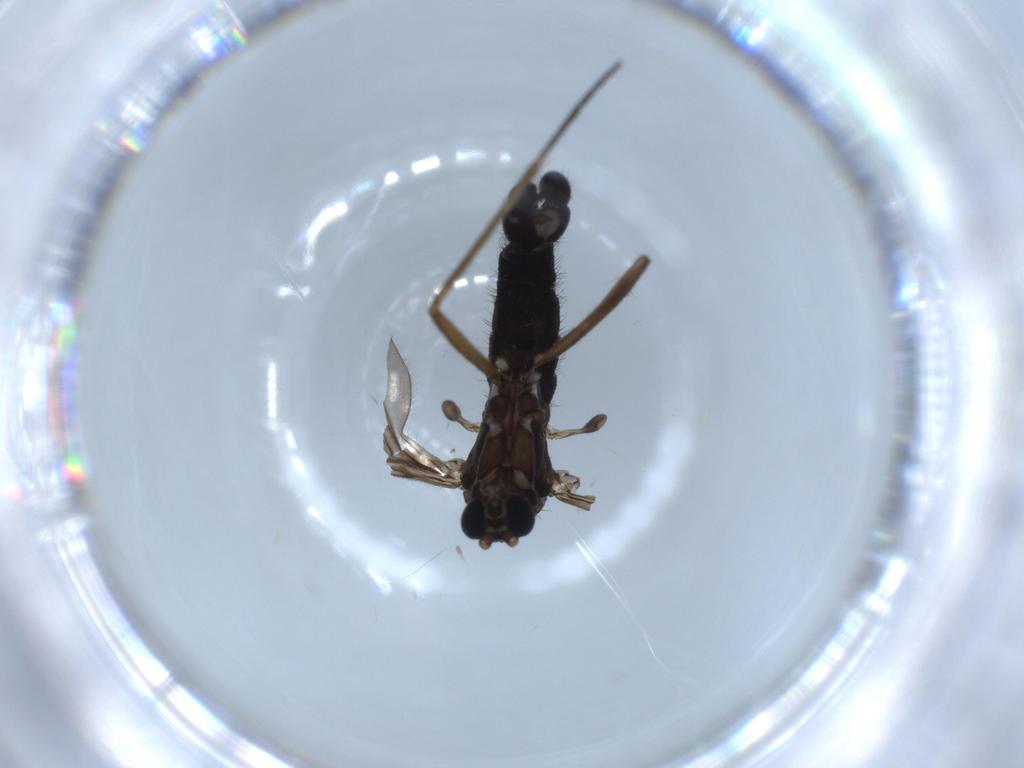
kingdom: Animalia
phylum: Arthropoda
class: Insecta
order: Diptera
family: Sciaridae
